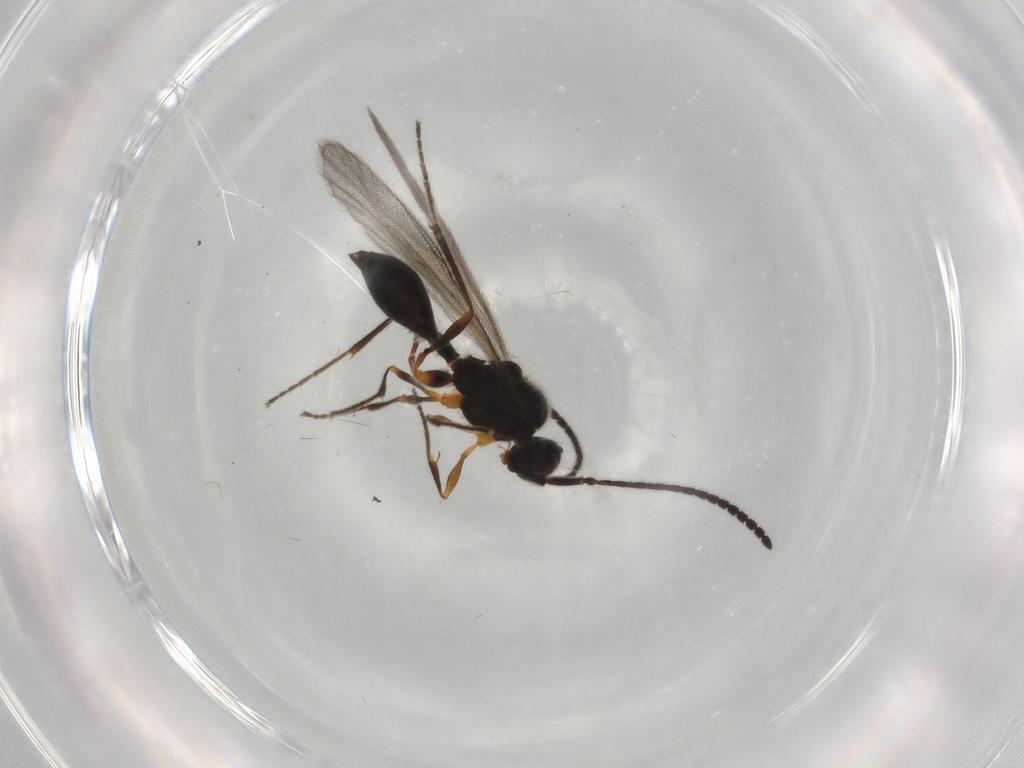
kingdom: Animalia
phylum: Arthropoda
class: Insecta
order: Hymenoptera
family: Diapriidae
